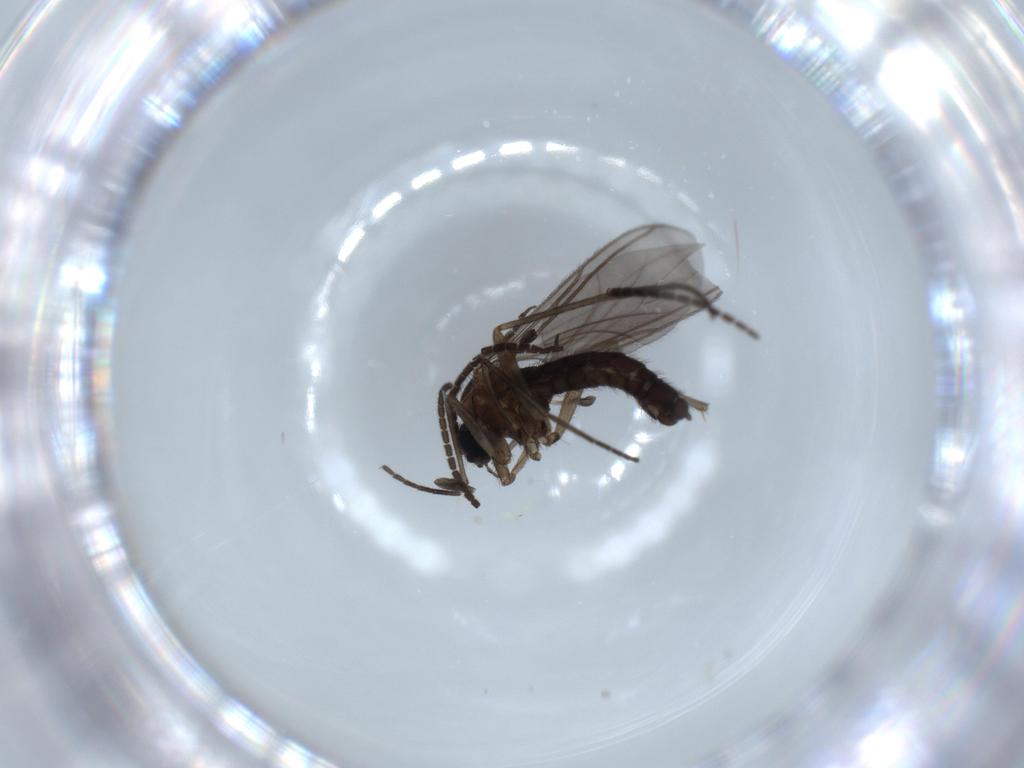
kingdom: Animalia
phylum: Arthropoda
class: Insecta
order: Diptera
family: Sciaridae
